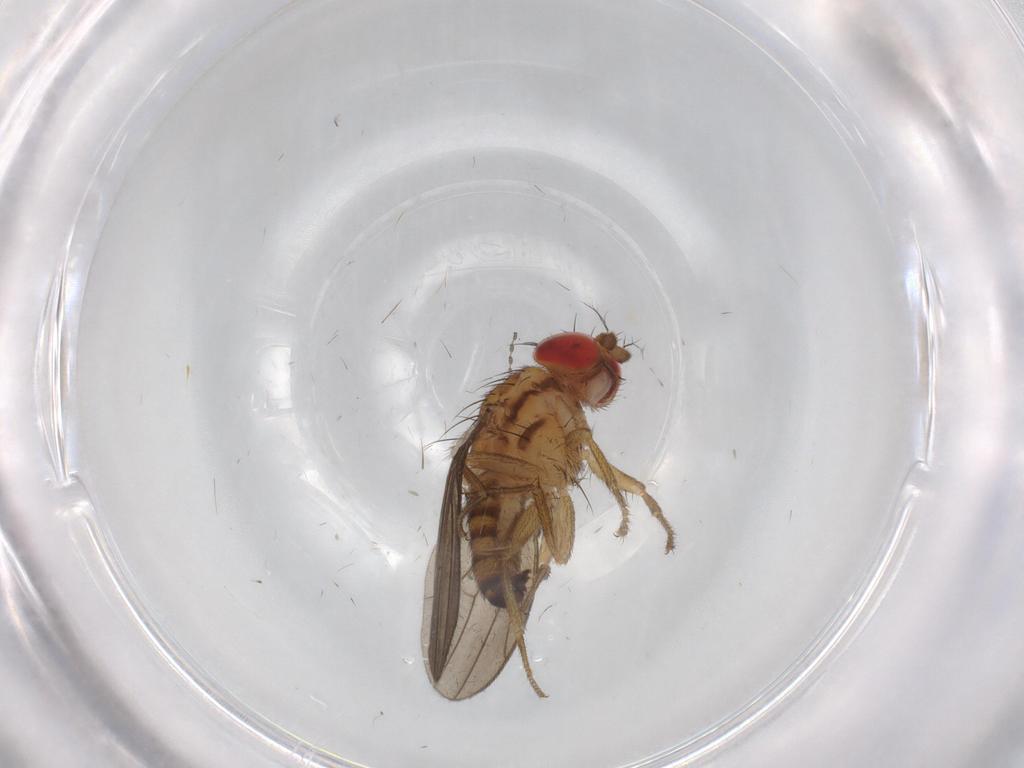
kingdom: Animalia
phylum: Arthropoda
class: Insecta
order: Diptera
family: Drosophilidae
